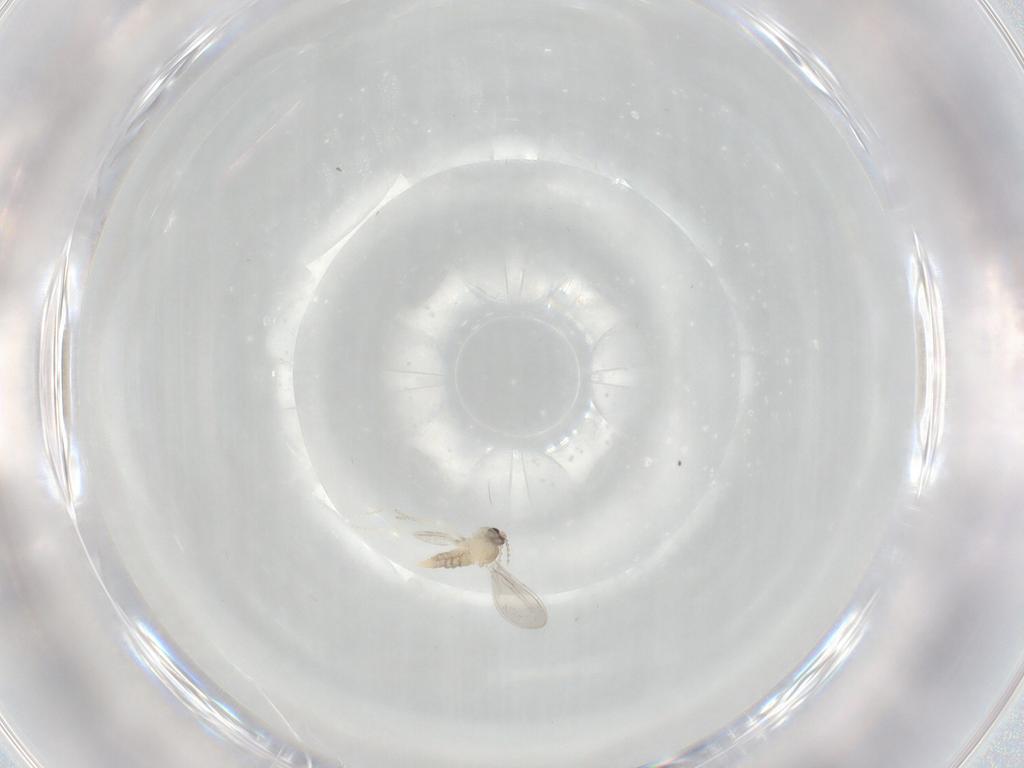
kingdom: Animalia
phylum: Arthropoda
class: Insecta
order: Diptera
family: Cecidomyiidae
